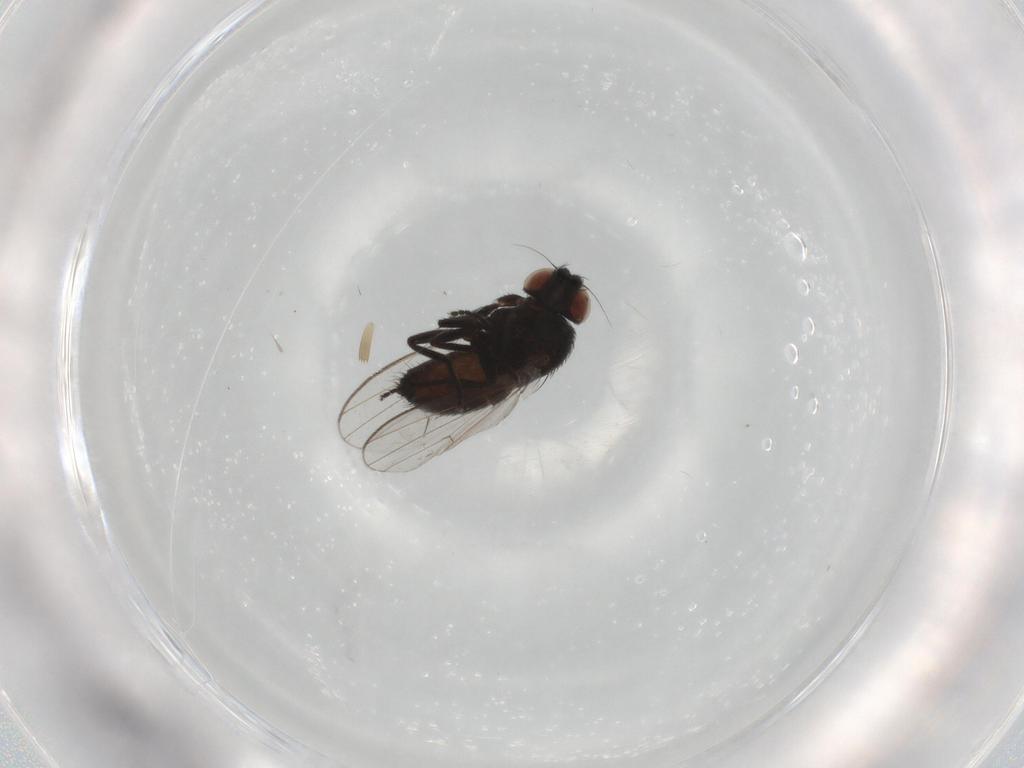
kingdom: Animalia
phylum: Arthropoda
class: Insecta
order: Diptera
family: Milichiidae
